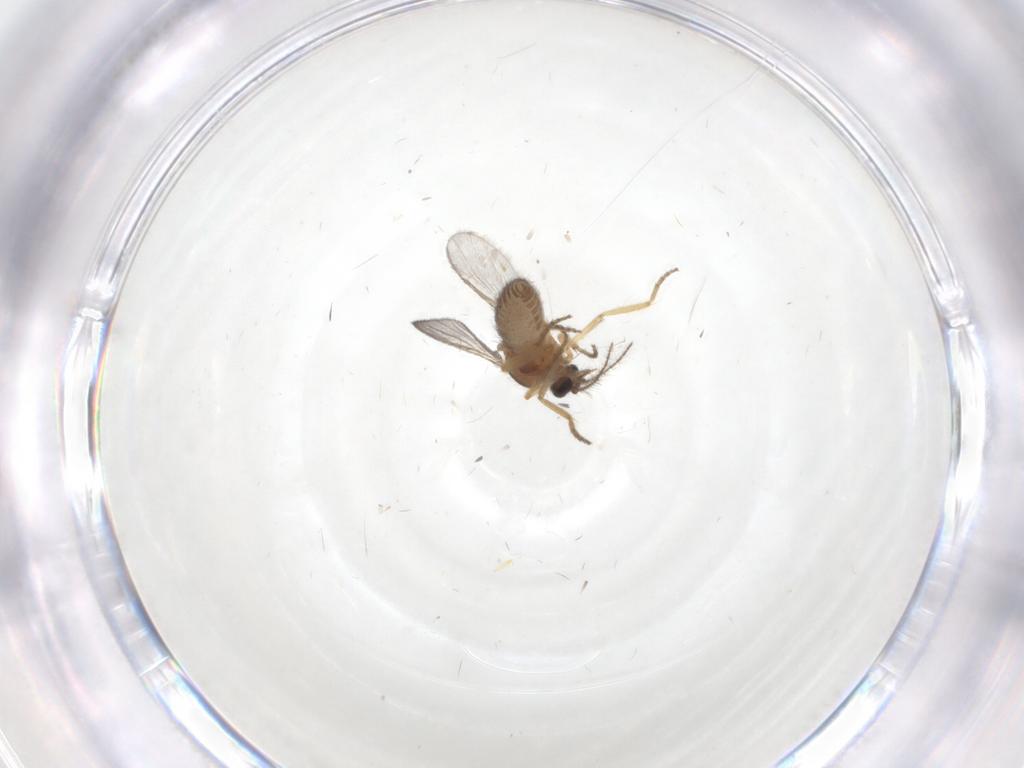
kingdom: Animalia
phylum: Arthropoda
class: Insecta
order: Diptera
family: Ceratopogonidae
